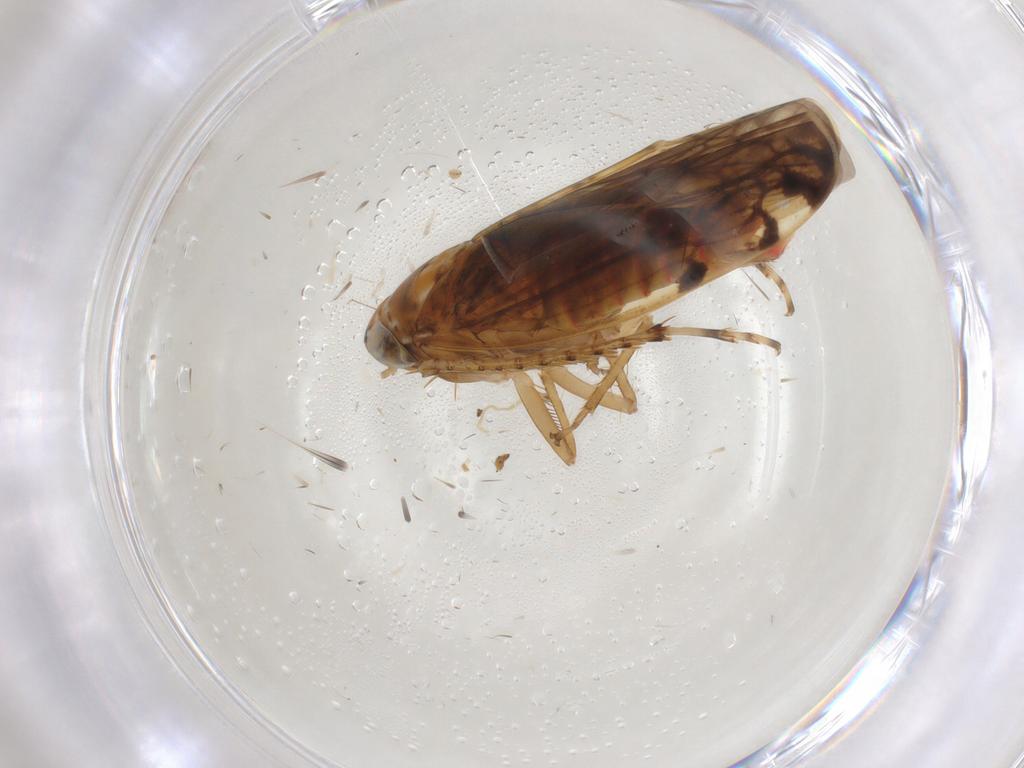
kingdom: Animalia
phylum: Arthropoda
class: Insecta
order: Hemiptera
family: Cicadellidae
